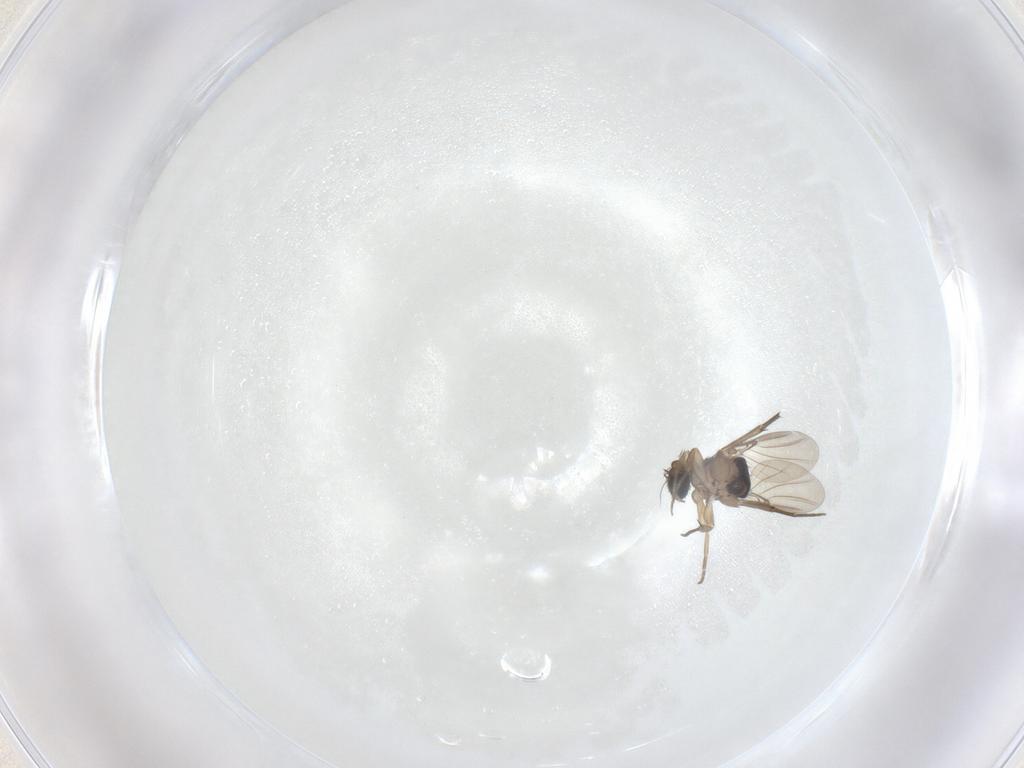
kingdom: Animalia
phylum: Arthropoda
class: Insecta
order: Diptera
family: Phoridae
